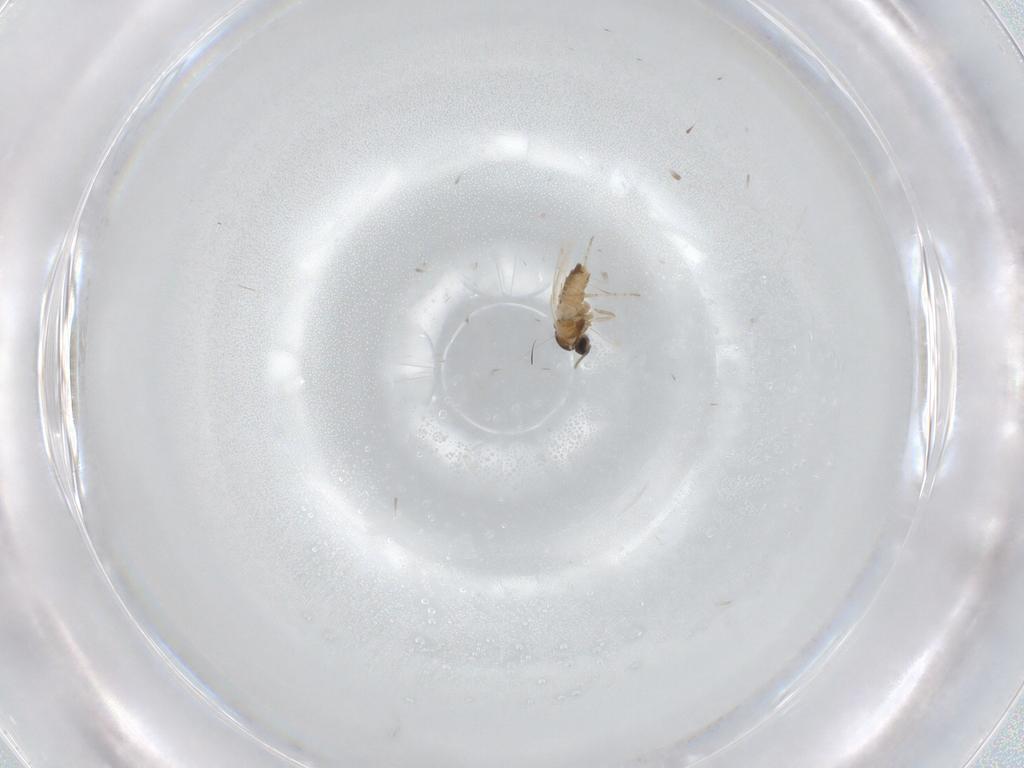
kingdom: Animalia
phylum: Arthropoda
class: Insecta
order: Diptera
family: Cecidomyiidae
